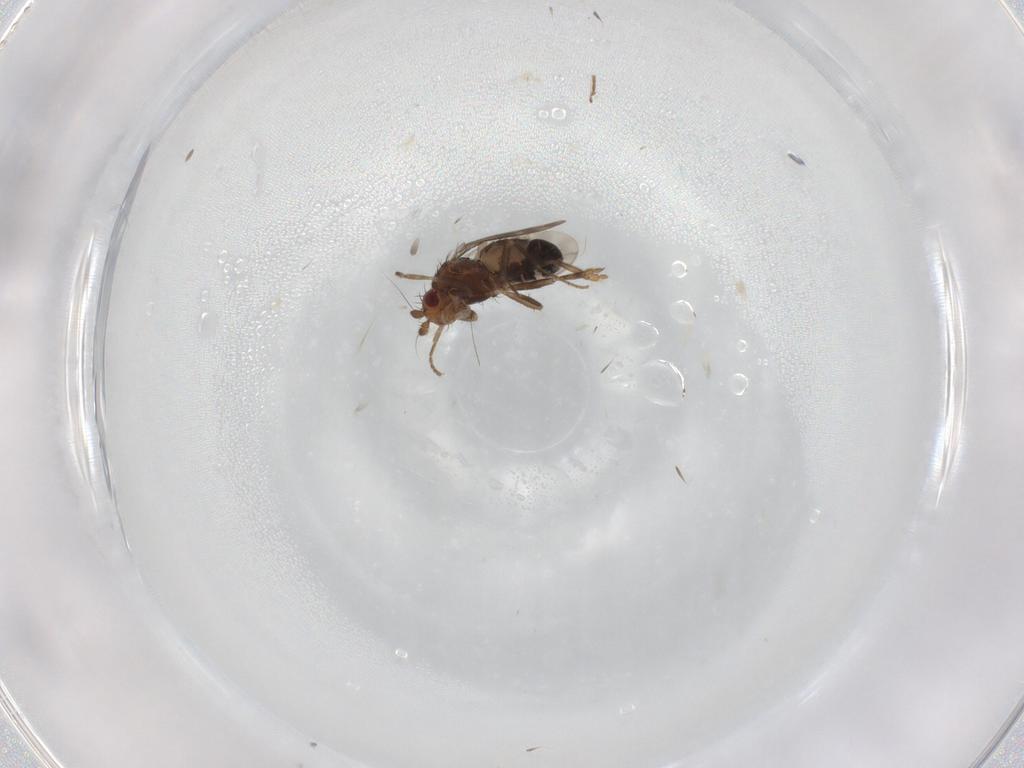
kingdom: Animalia
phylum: Arthropoda
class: Insecta
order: Diptera
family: Sphaeroceridae
